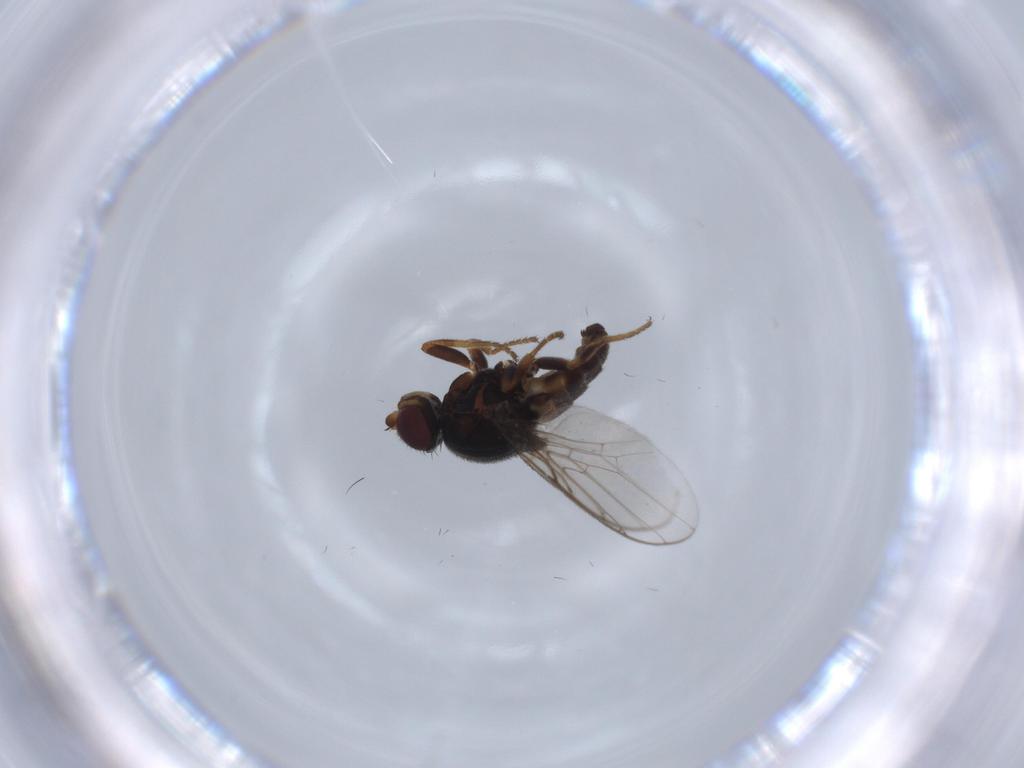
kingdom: Animalia
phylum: Arthropoda
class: Insecta
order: Diptera
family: Chloropidae
